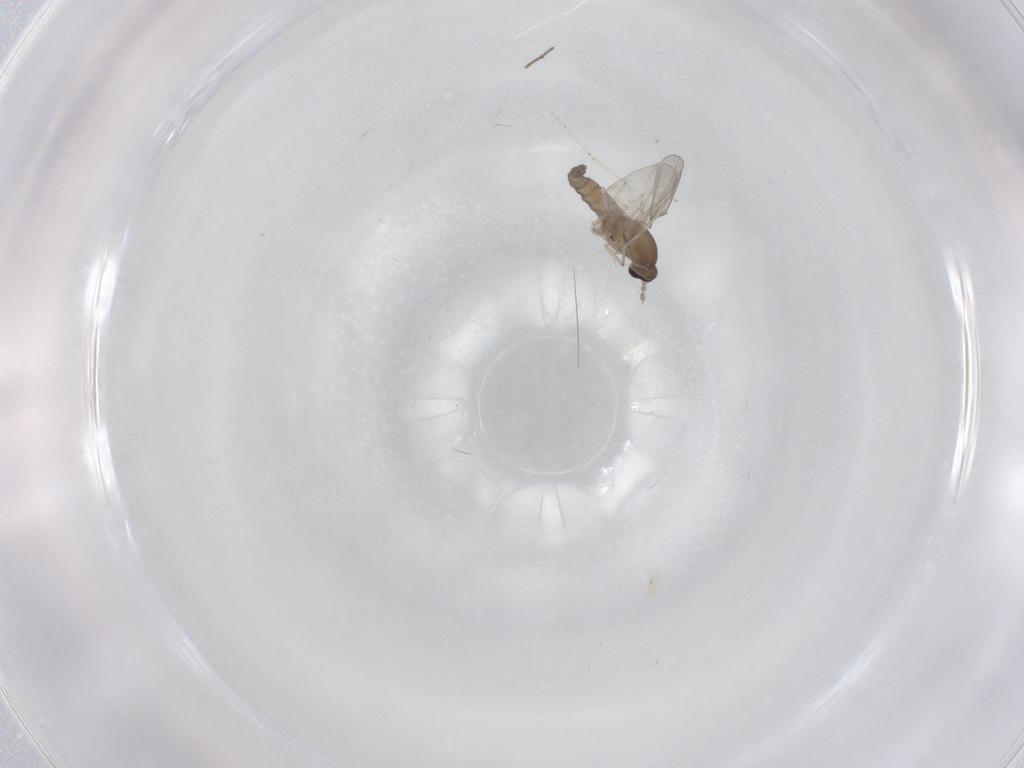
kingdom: Animalia
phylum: Arthropoda
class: Insecta
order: Diptera
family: Cecidomyiidae
